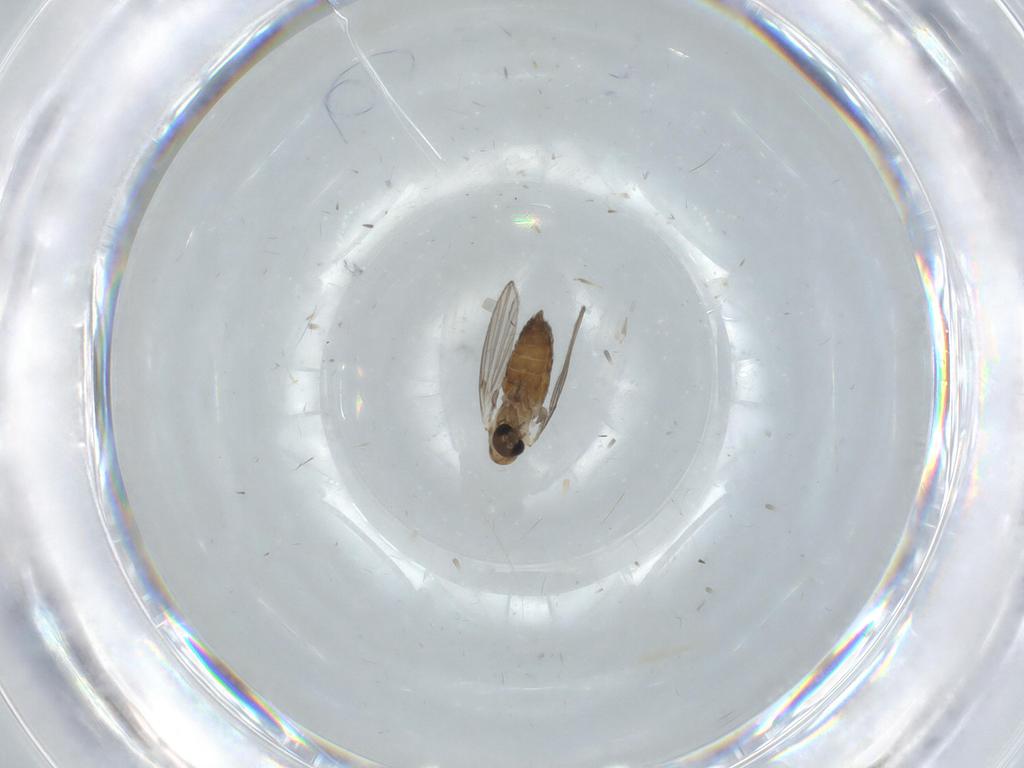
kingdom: Animalia
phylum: Arthropoda
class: Insecta
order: Diptera
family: Psychodidae
